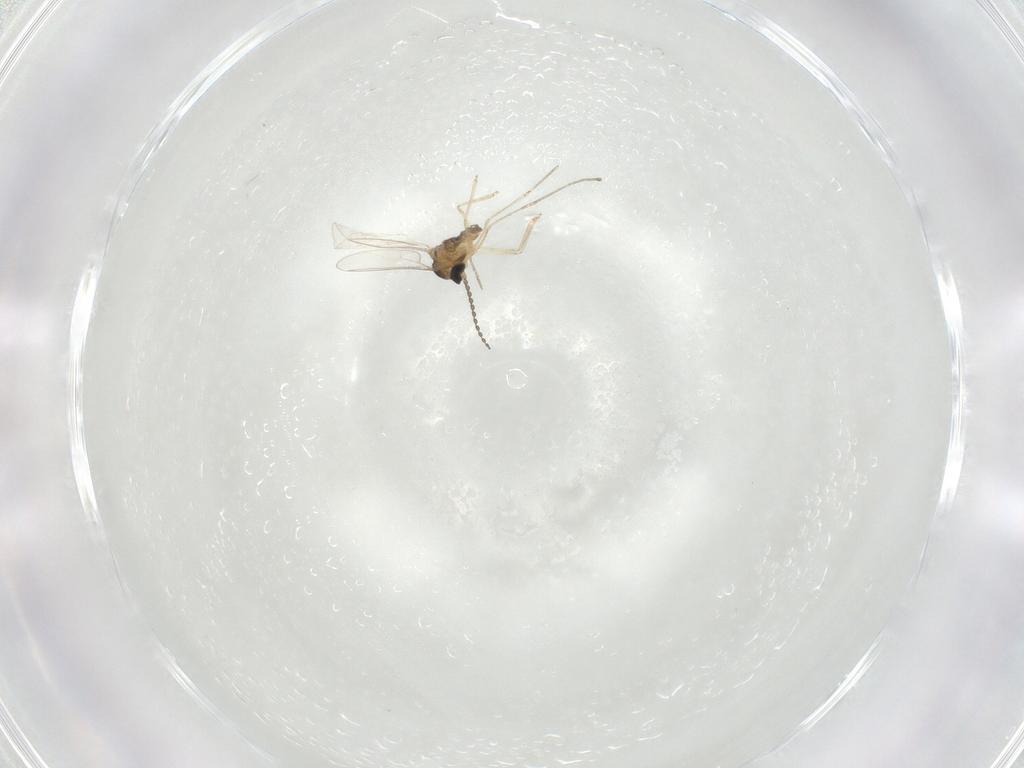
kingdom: Animalia
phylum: Arthropoda
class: Insecta
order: Diptera
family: Cecidomyiidae
